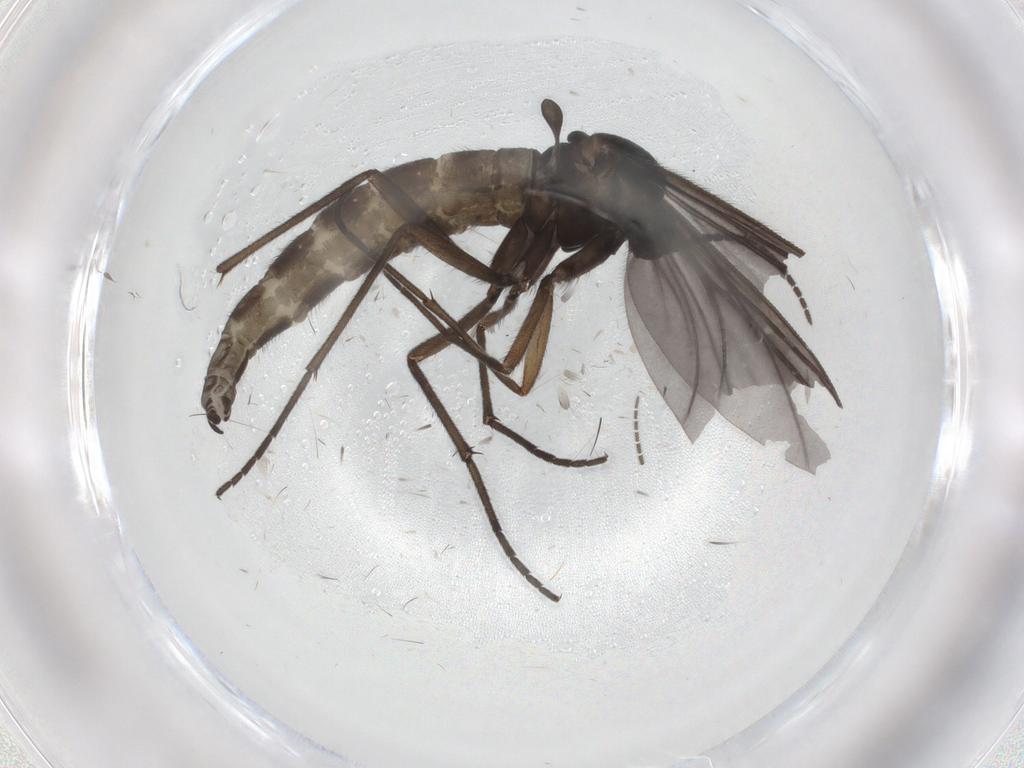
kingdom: Animalia
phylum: Arthropoda
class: Insecta
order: Diptera
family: Sciaridae
